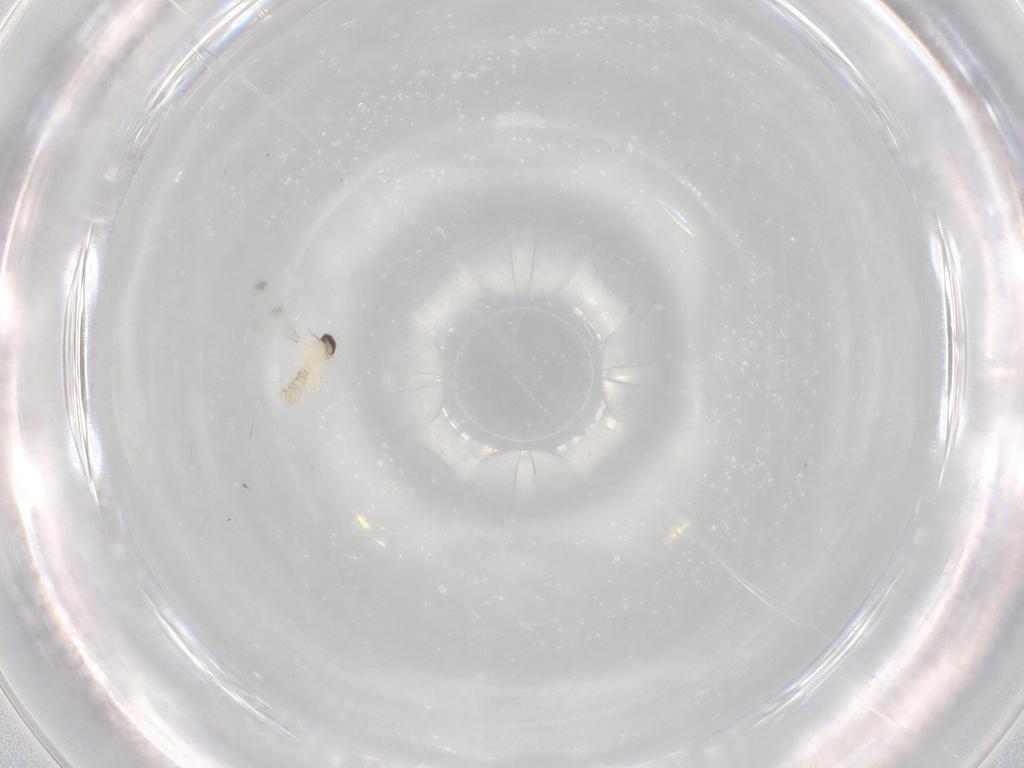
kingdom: Animalia
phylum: Arthropoda
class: Insecta
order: Diptera
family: Cecidomyiidae
